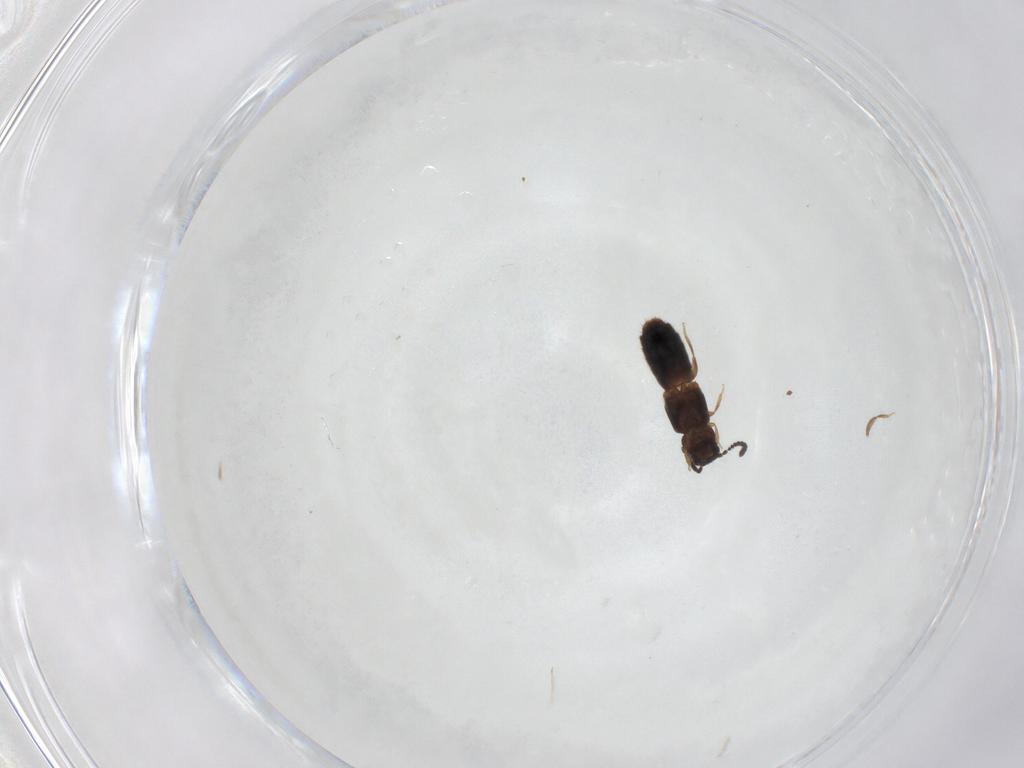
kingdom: Animalia
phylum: Arthropoda
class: Insecta
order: Coleoptera
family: Staphylinidae
